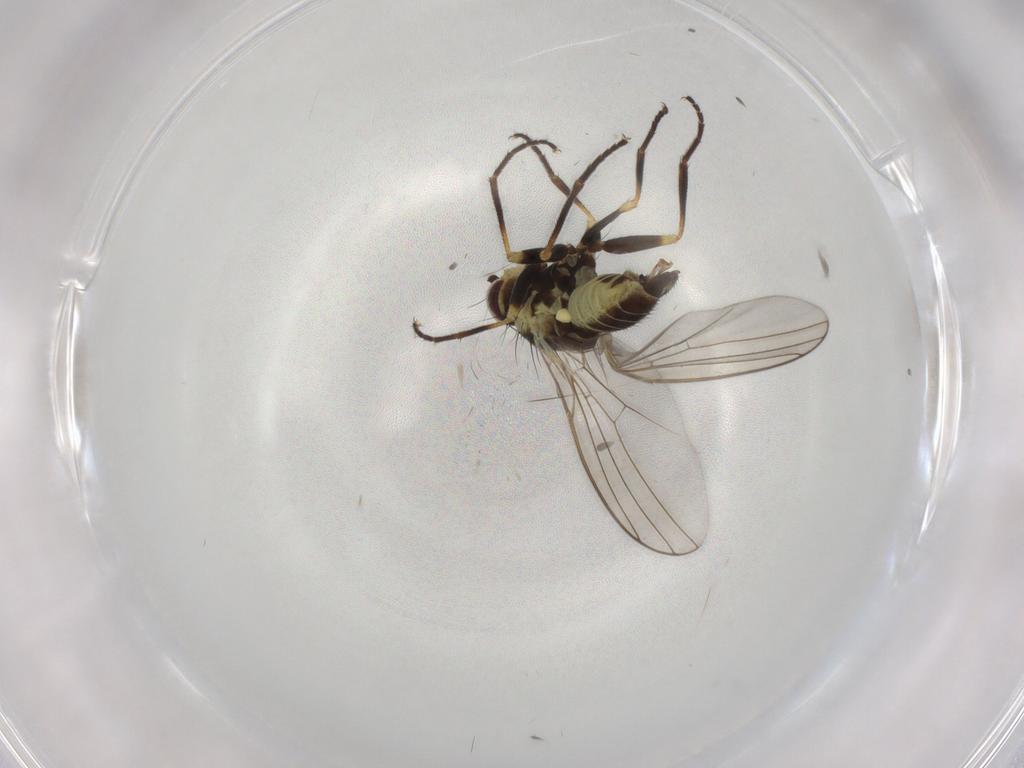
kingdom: Animalia
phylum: Arthropoda
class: Insecta
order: Diptera
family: Agromyzidae
